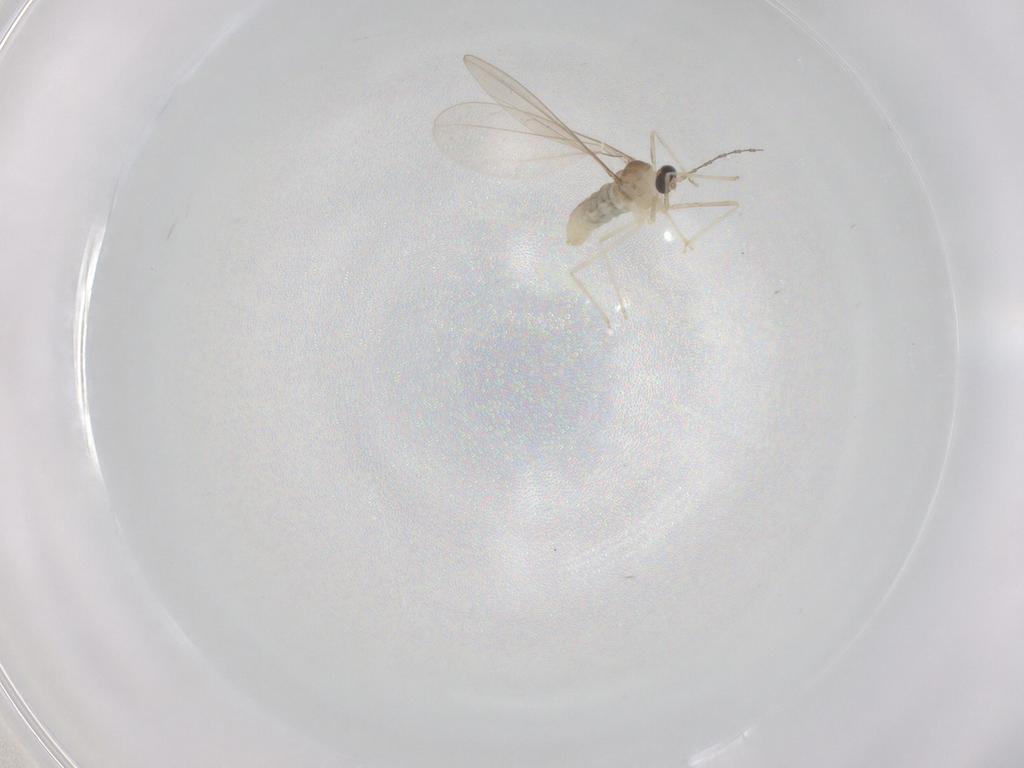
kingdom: Animalia
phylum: Arthropoda
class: Insecta
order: Diptera
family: Cecidomyiidae
